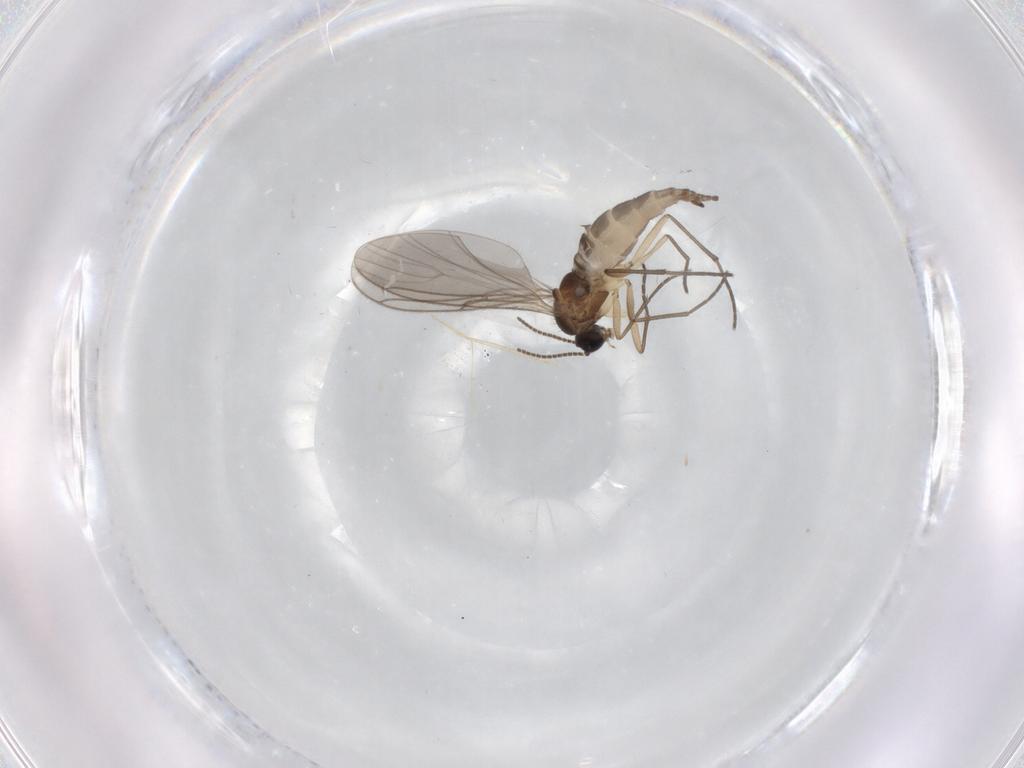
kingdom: Animalia
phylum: Arthropoda
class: Insecta
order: Diptera
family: Sciaridae
